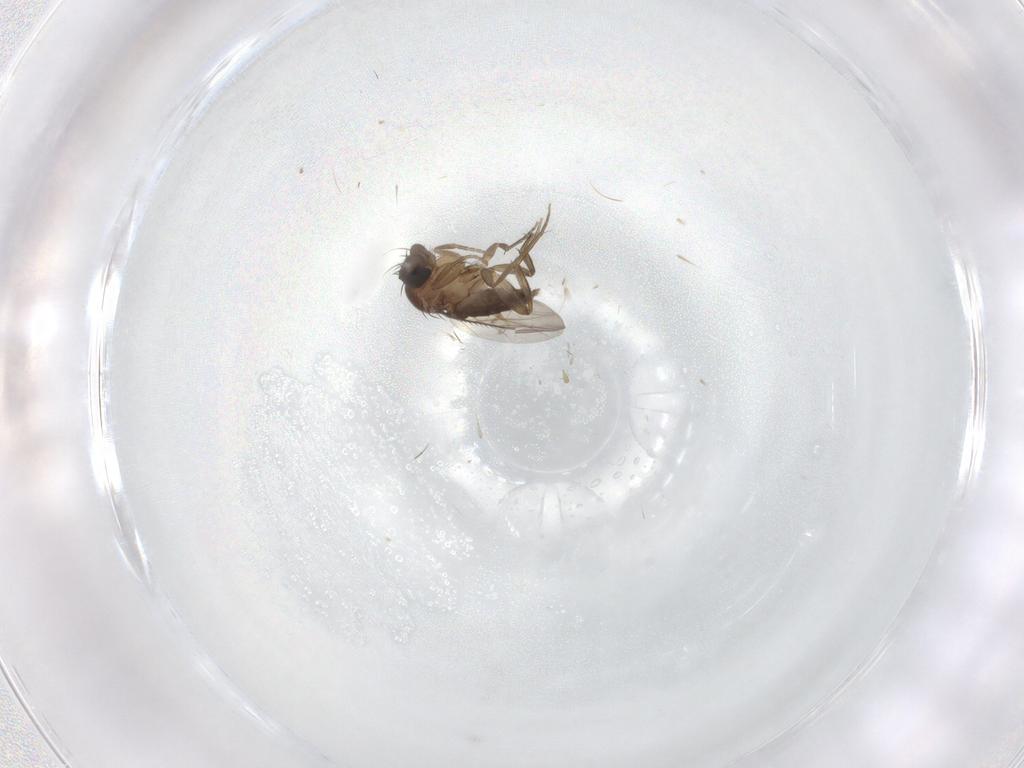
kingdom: Animalia
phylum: Arthropoda
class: Insecta
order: Diptera
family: Phoridae
